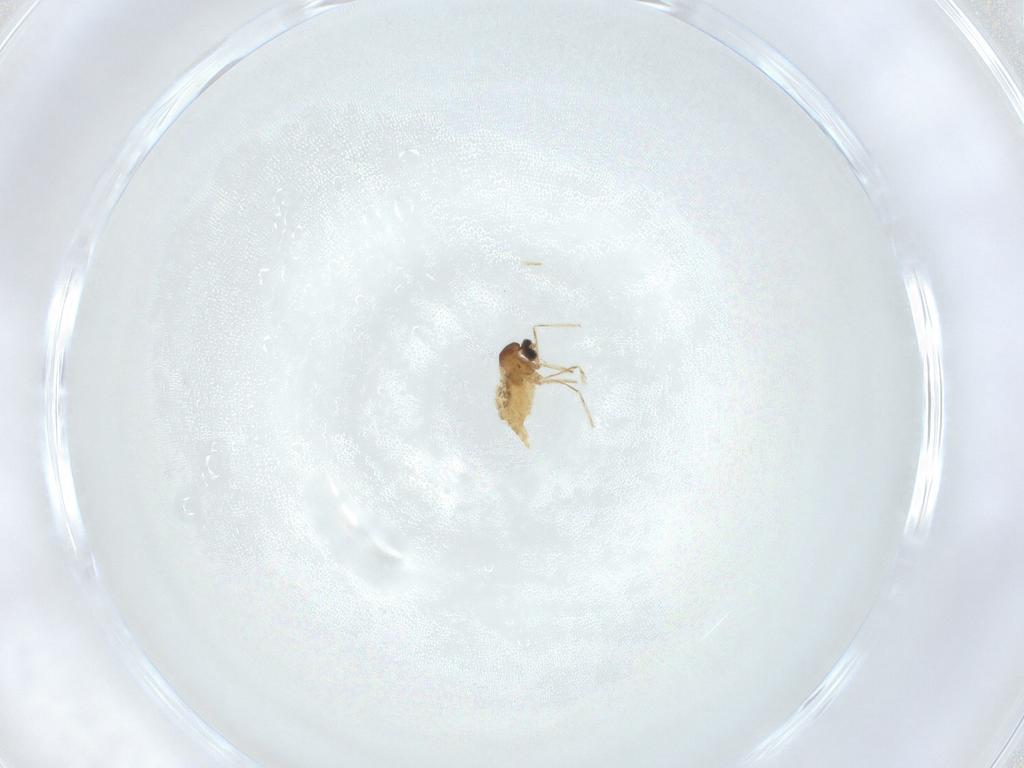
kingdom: Animalia
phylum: Arthropoda
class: Insecta
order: Diptera
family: Cecidomyiidae
